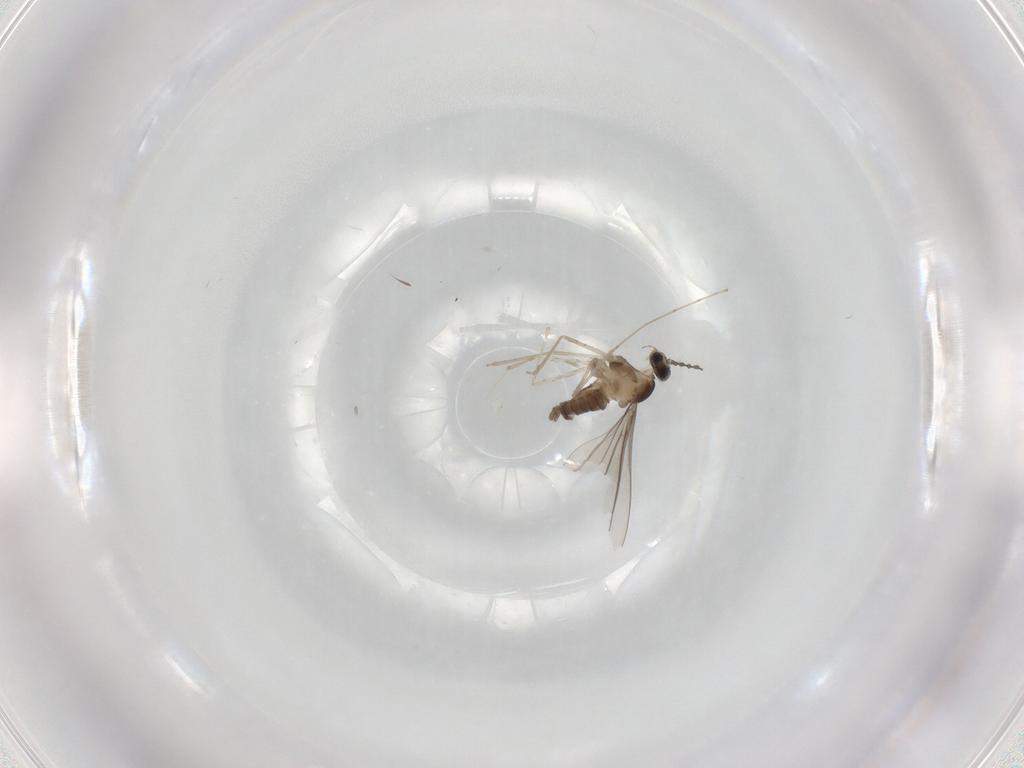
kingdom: Animalia
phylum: Arthropoda
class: Insecta
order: Diptera
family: Cecidomyiidae
